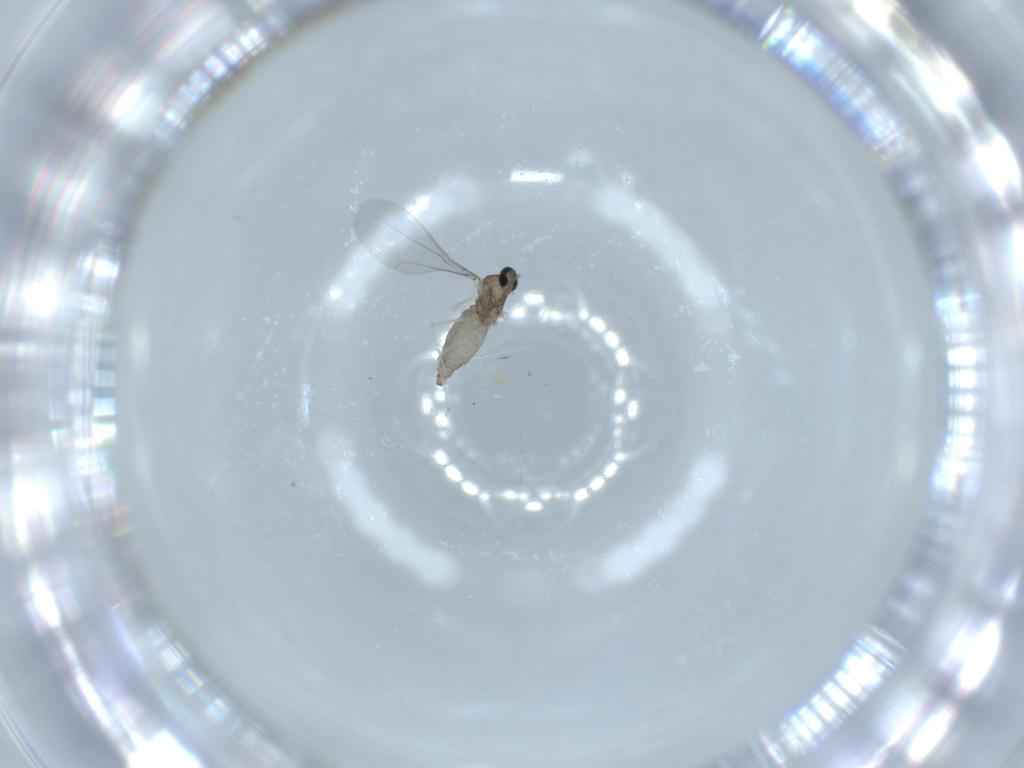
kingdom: Animalia
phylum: Arthropoda
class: Insecta
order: Diptera
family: Cecidomyiidae
